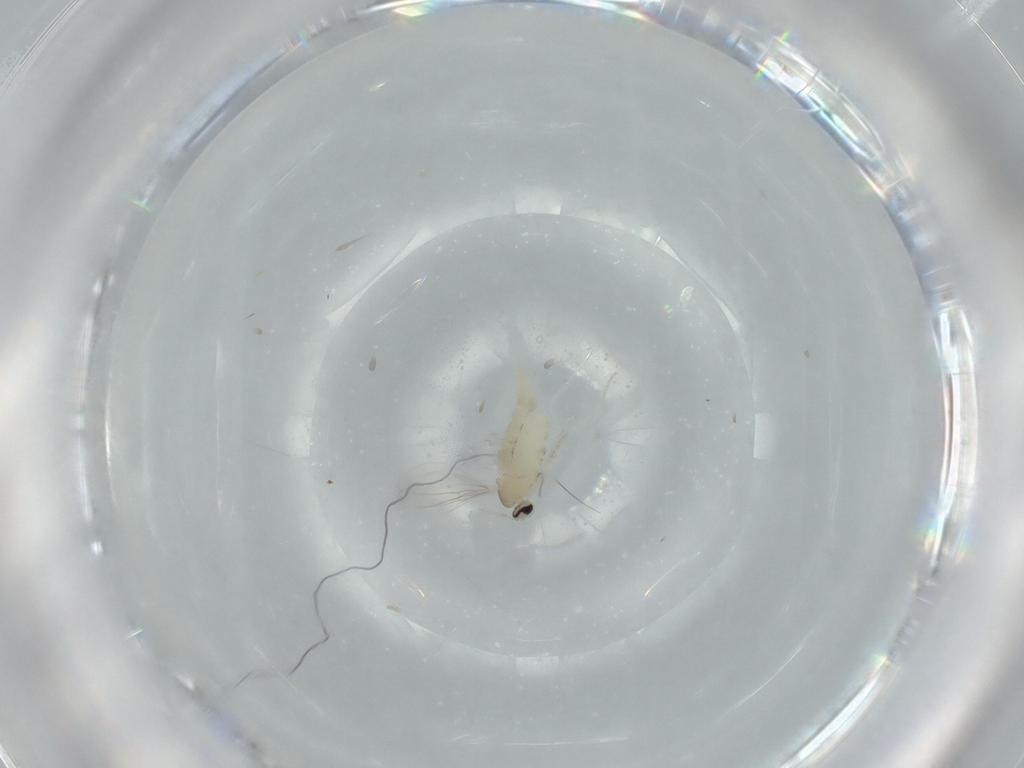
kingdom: Animalia
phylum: Arthropoda
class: Insecta
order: Diptera
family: Cecidomyiidae
